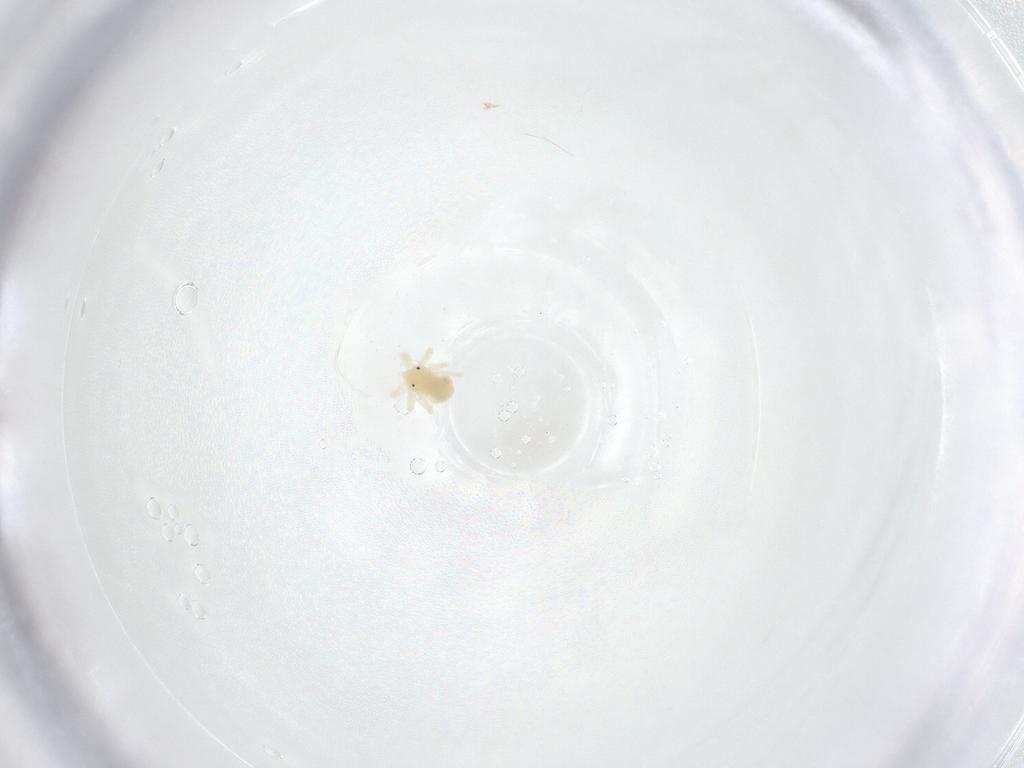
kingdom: Animalia
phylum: Arthropoda
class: Arachnida
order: Trombidiformes
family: Anystidae
